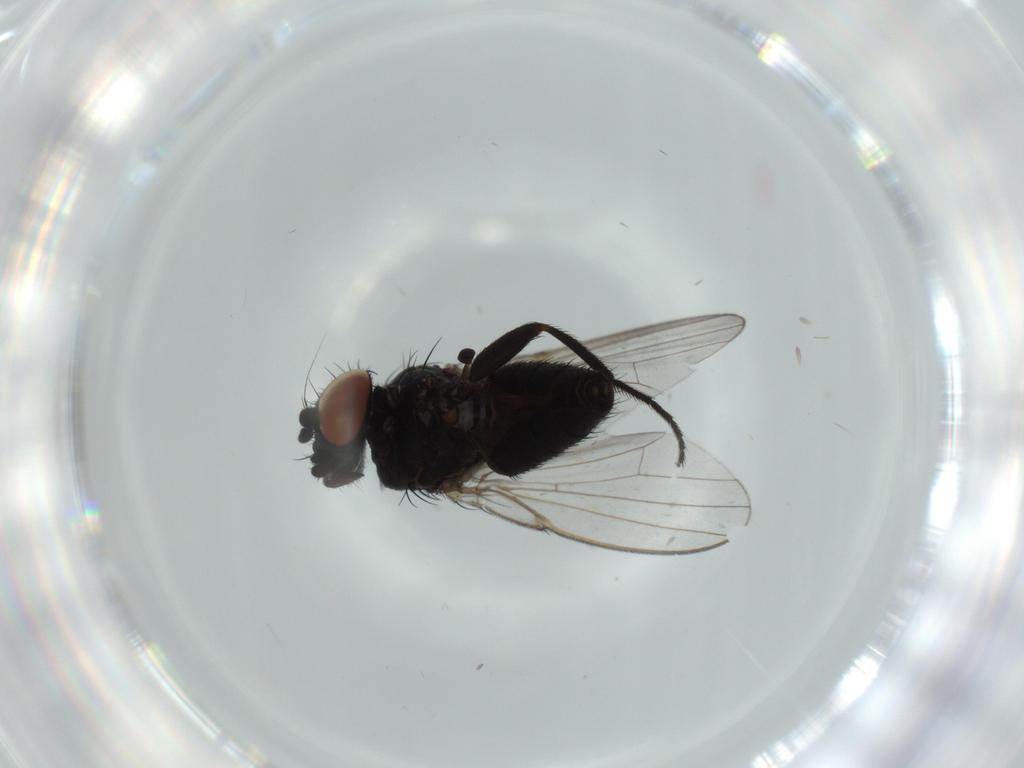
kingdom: Animalia
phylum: Arthropoda
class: Insecta
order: Diptera
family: Milichiidae
